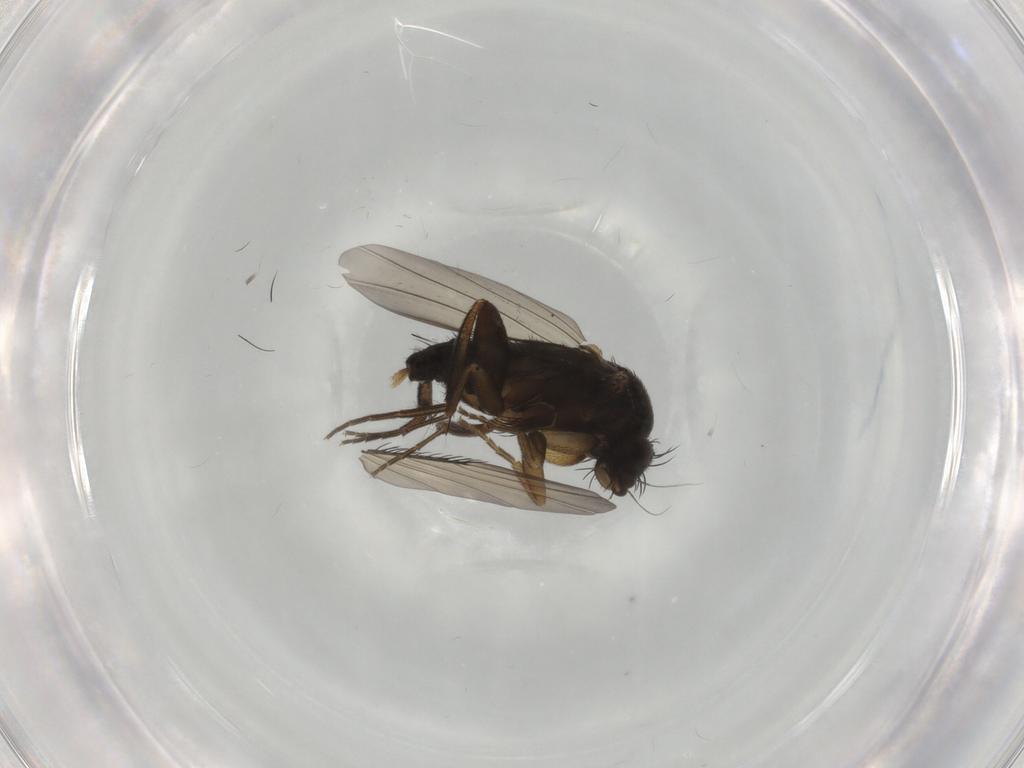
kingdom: Animalia
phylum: Arthropoda
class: Insecta
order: Diptera
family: Phoridae
